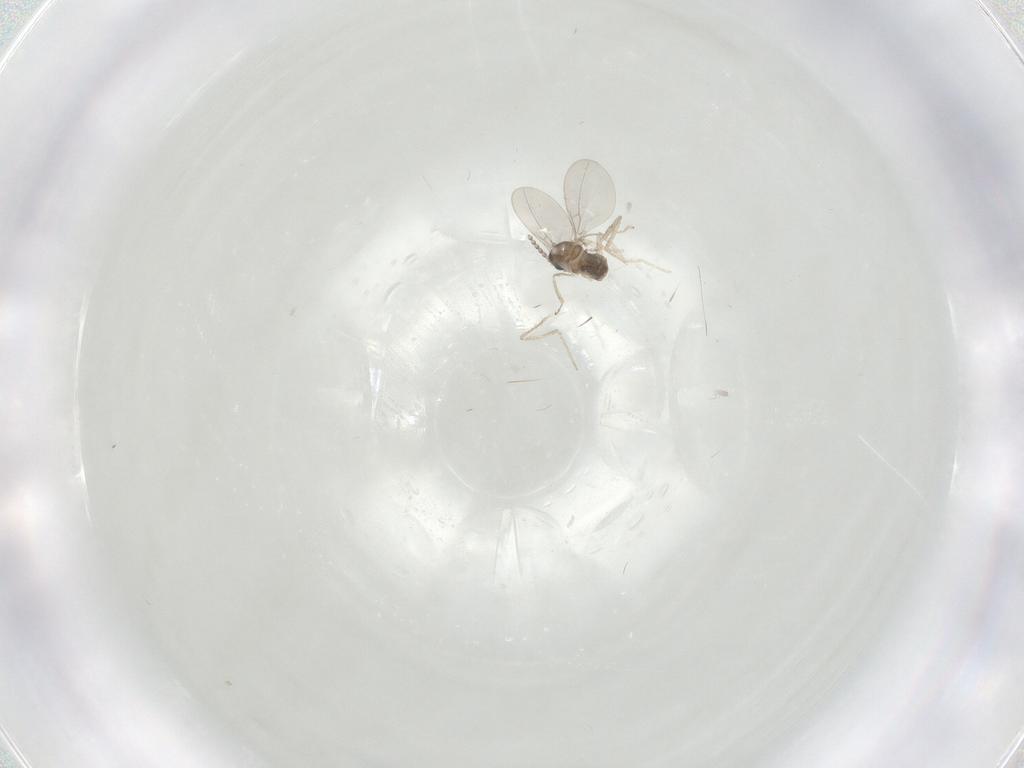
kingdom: Animalia
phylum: Arthropoda
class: Insecta
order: Diptera
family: Cecidomyiidae
